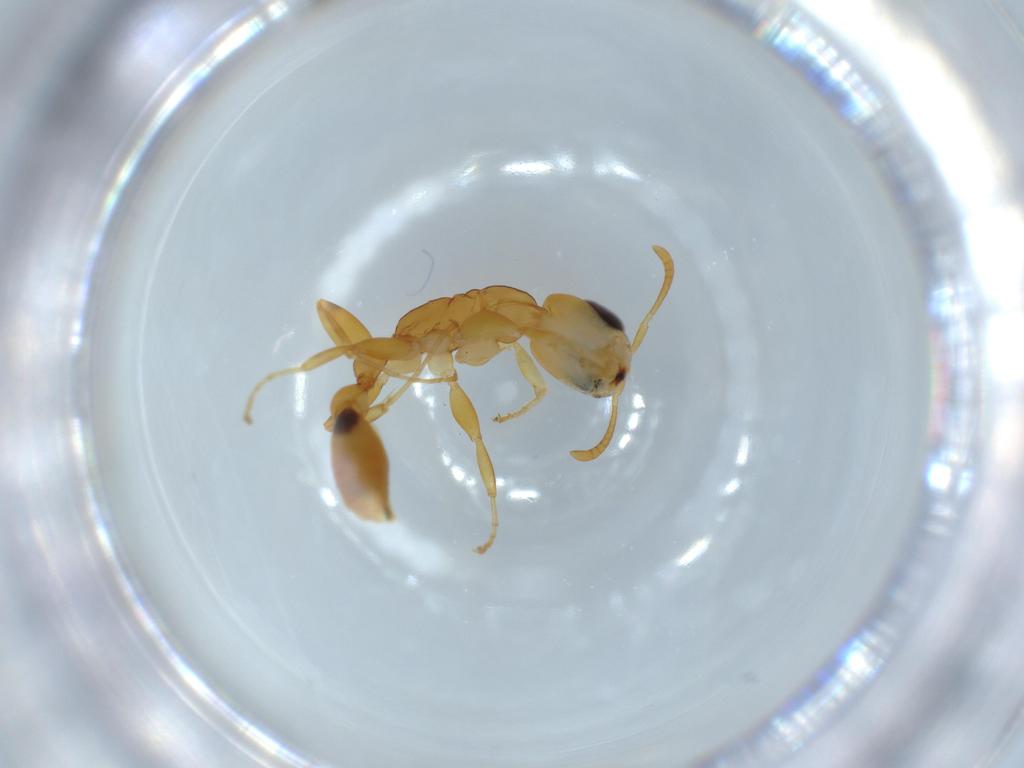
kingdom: Animalia
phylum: Arthropoda
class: Insecta
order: Hymenoptera
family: Formicidae
